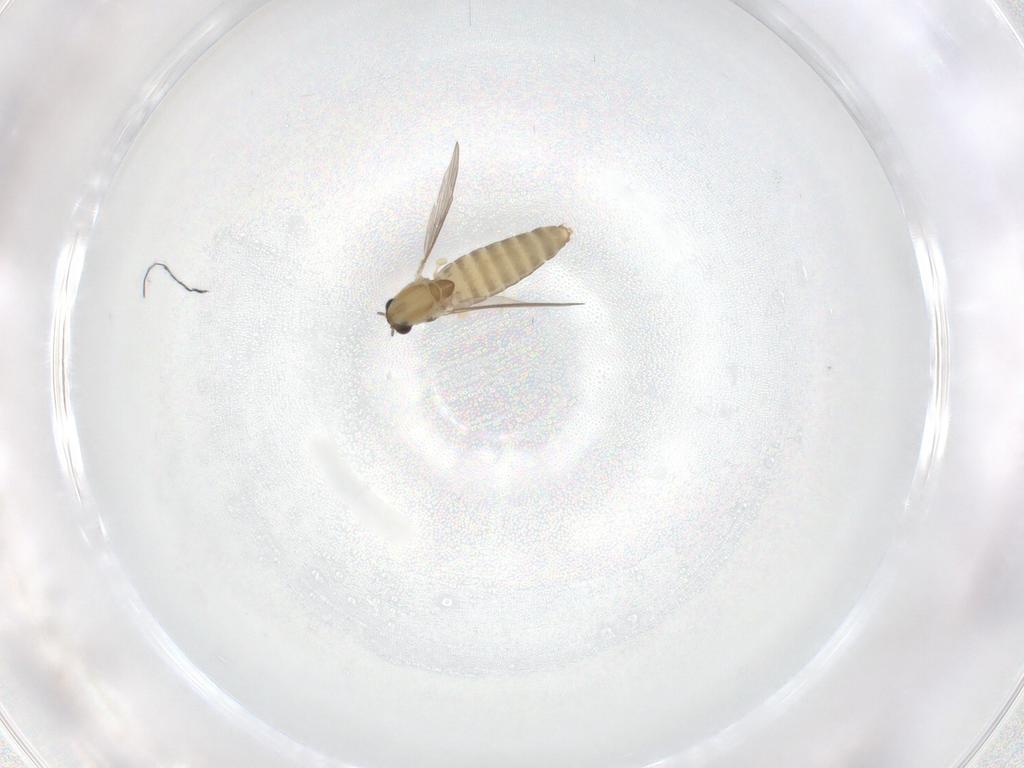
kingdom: Animalia
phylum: Arthropoda
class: Insecta
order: Diptera
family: Chironomidae
